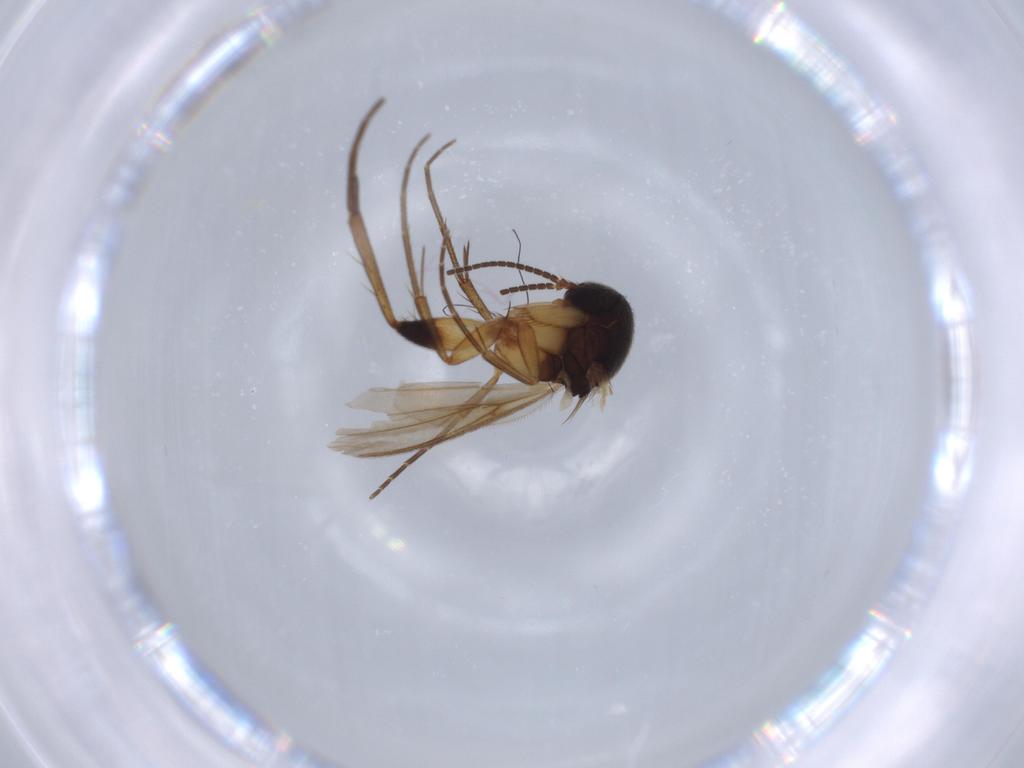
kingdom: Animalia
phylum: Arthropoda
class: Insecta
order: Diptera
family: Mycetophilidae
